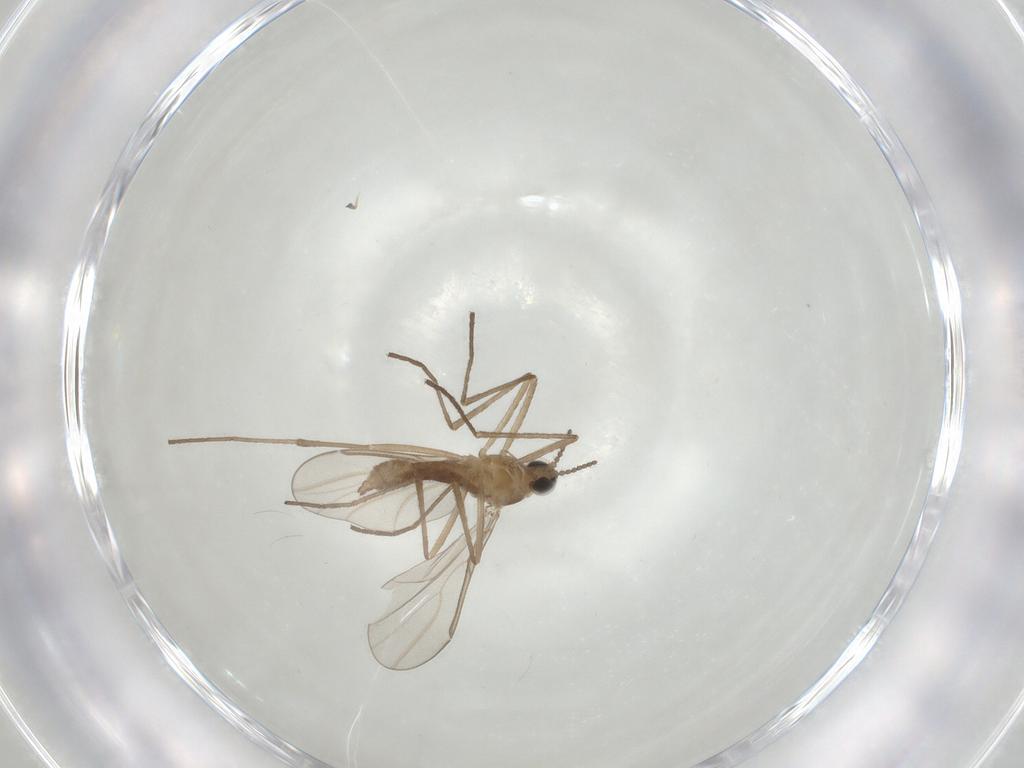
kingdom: Animalia
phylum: Arthropoda
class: Insecta
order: Diptera
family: Cecidomyiidae
